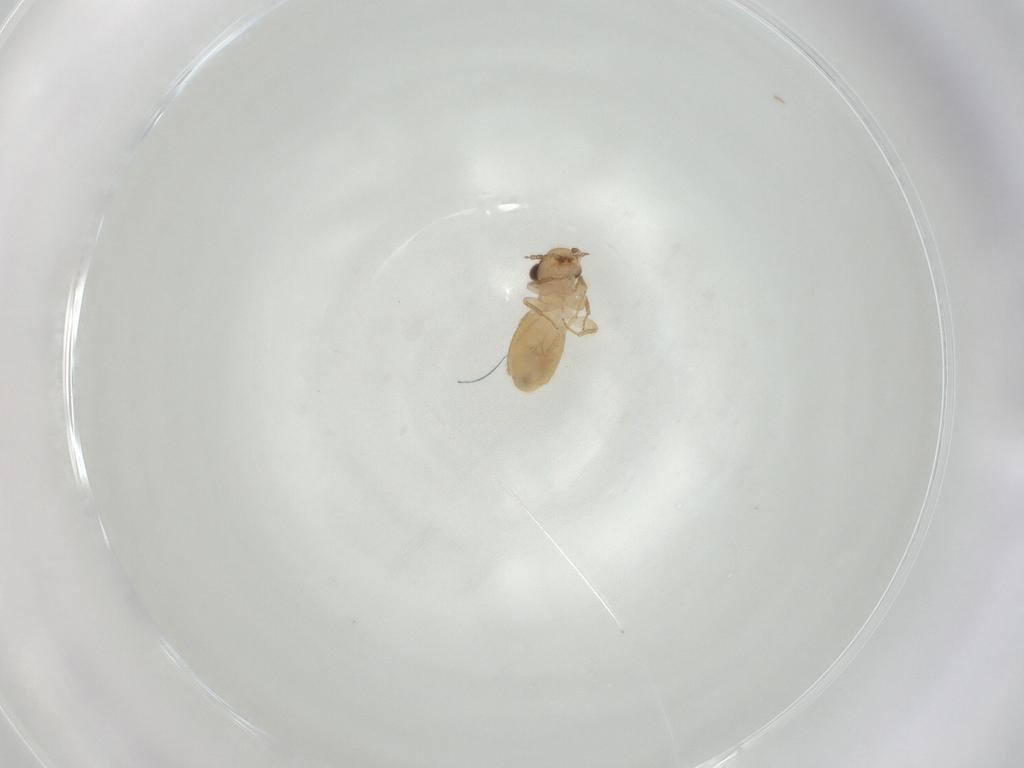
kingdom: Animalia
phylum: Arthropoda
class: Insecta
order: Psocodea
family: Trogiidae
